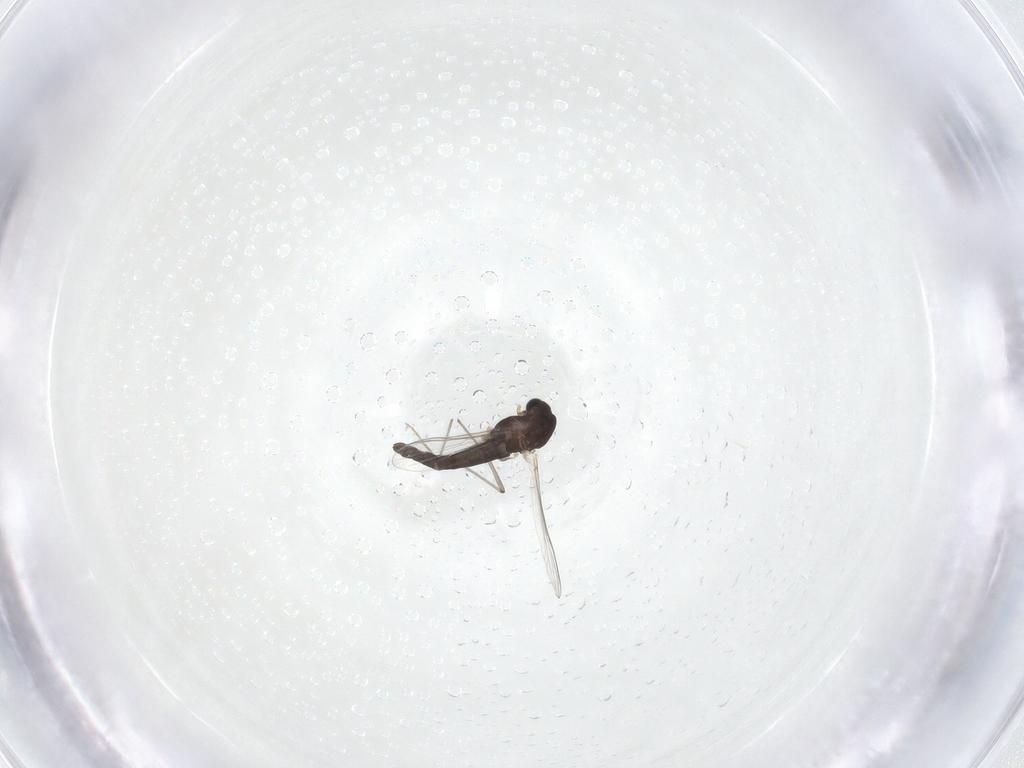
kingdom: Animalia
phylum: Arthropoda
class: Insecta
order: Diptera
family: Chironomidae
